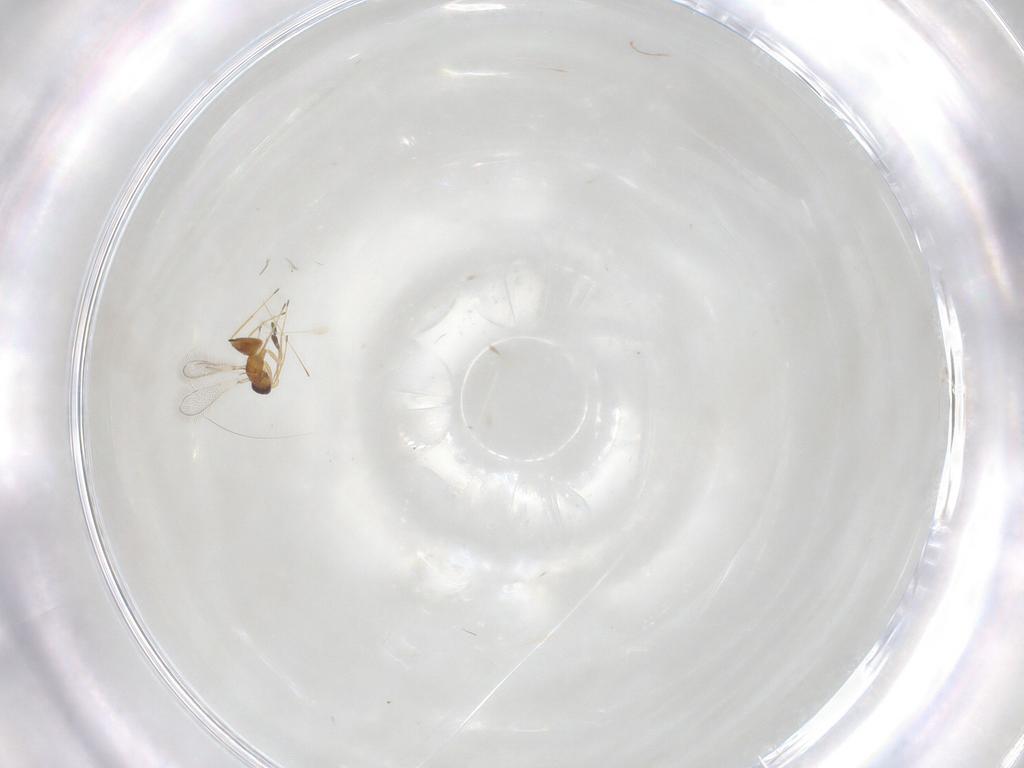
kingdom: Animalia
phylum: Arthropoda
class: Insecta
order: Hymenoptera
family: Mymaridae
